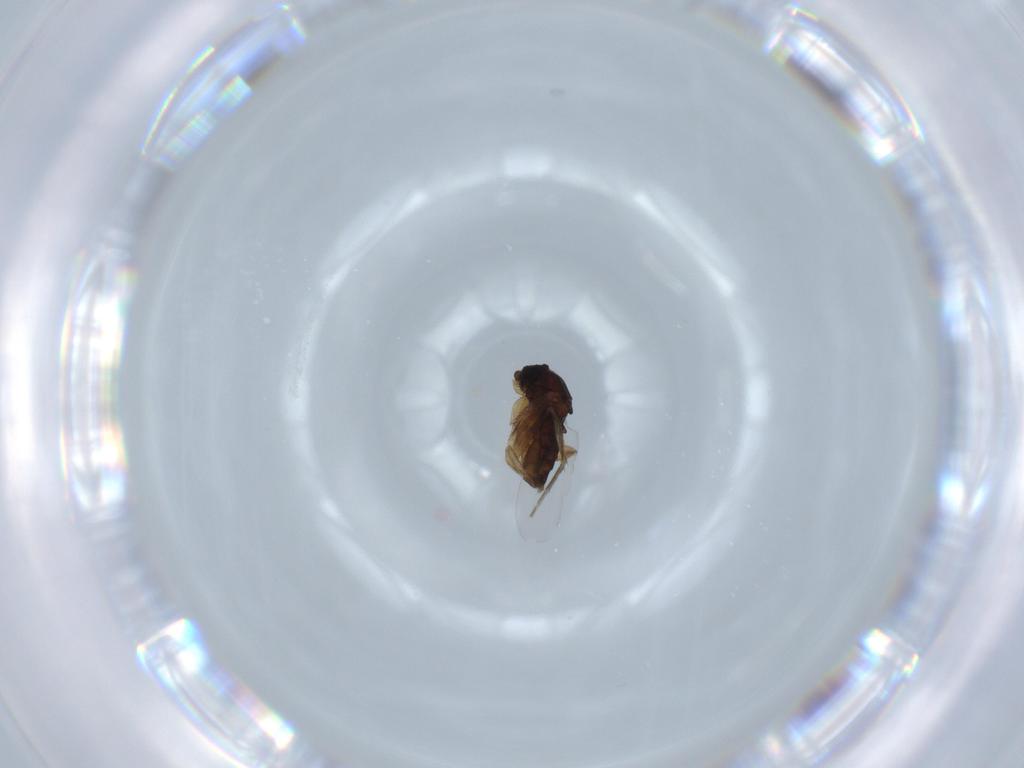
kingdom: Animalia
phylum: Arthropoda
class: Insecta
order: Diptera
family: Phoridae
